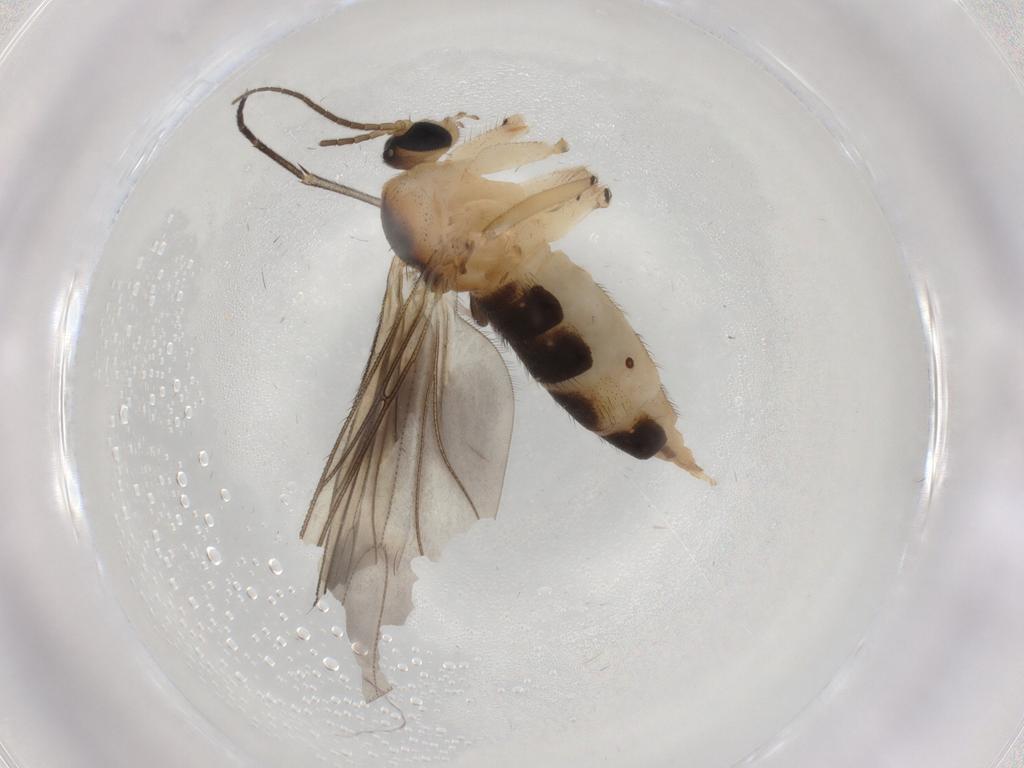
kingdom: Animalia
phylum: Arthropoda
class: Insecta
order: Diptera
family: Sciaridae
